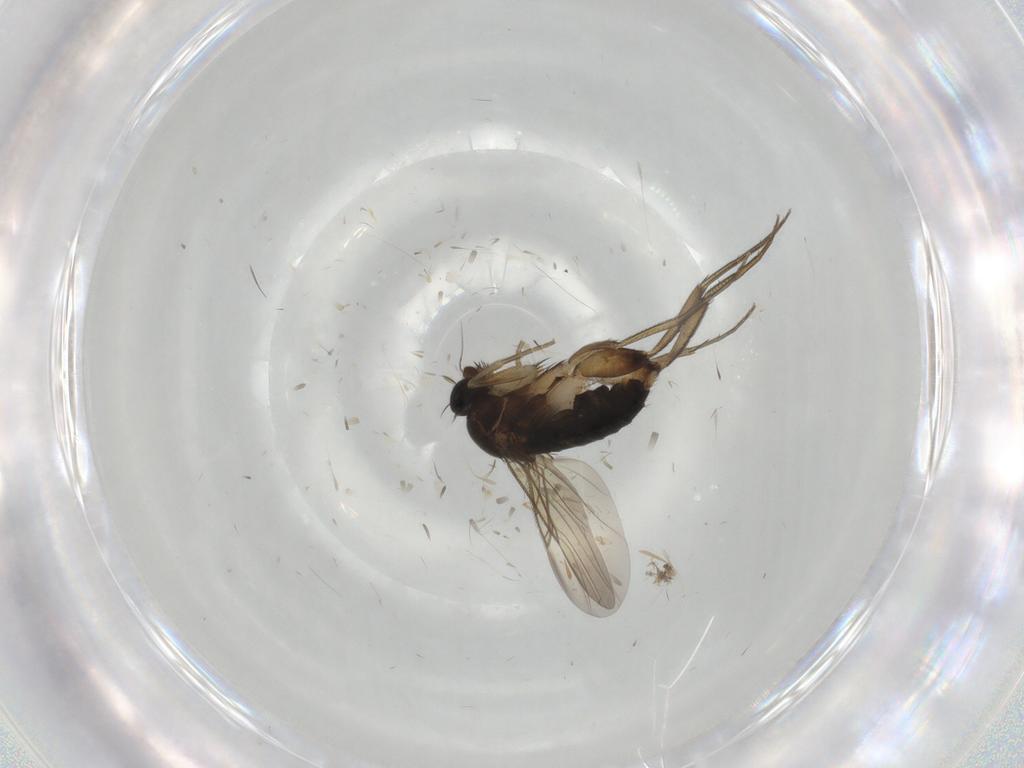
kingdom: Animalia
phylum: Arthropoda
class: Insecta
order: Diptera
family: Phoridae
